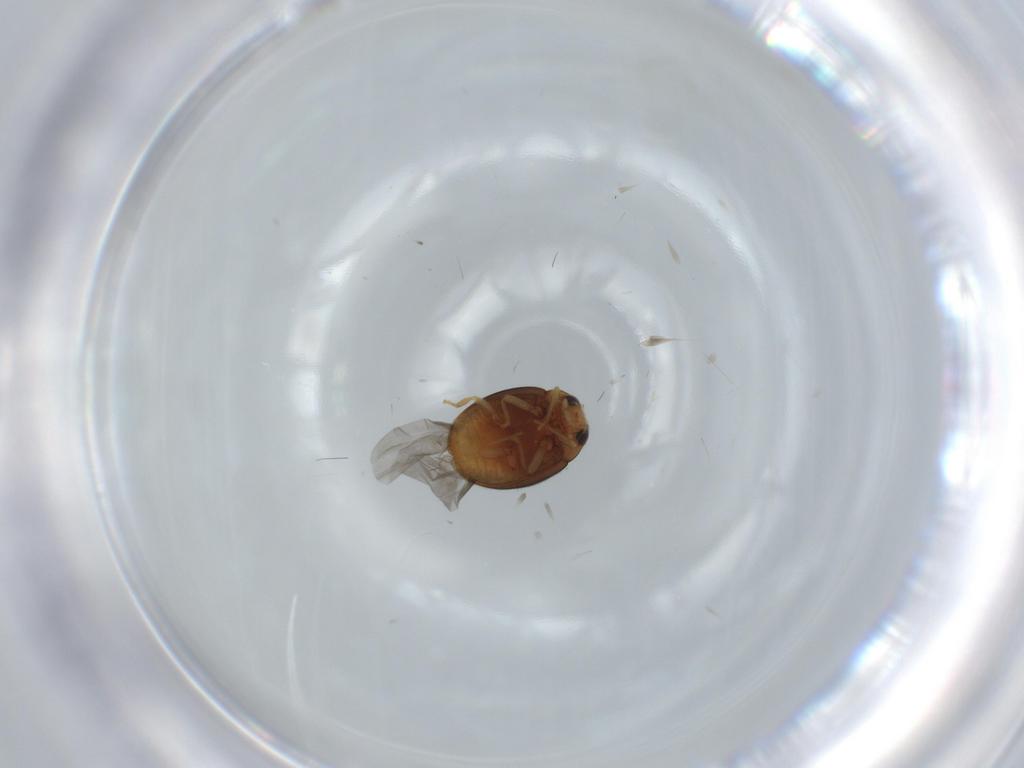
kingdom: Animalia
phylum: Arthropoda
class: Insecta
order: Coleoptera
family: Coccinellidae
